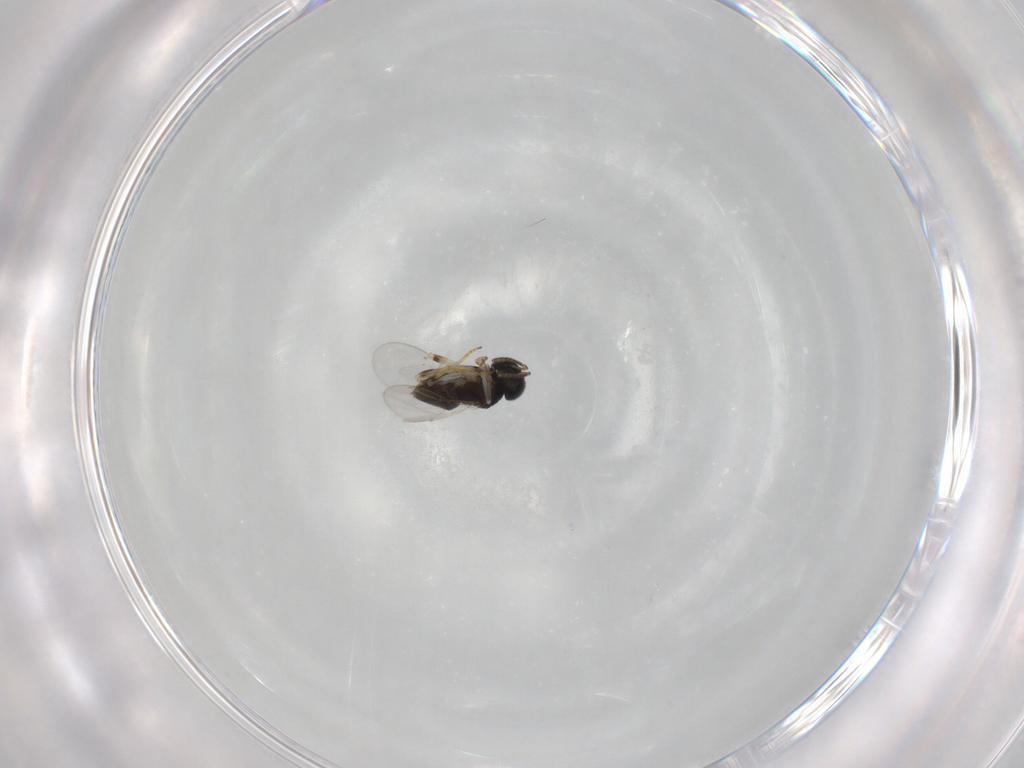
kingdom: Animalia
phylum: Arthropoda
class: Insecta
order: Hymenoptera
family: Encyrtidae
